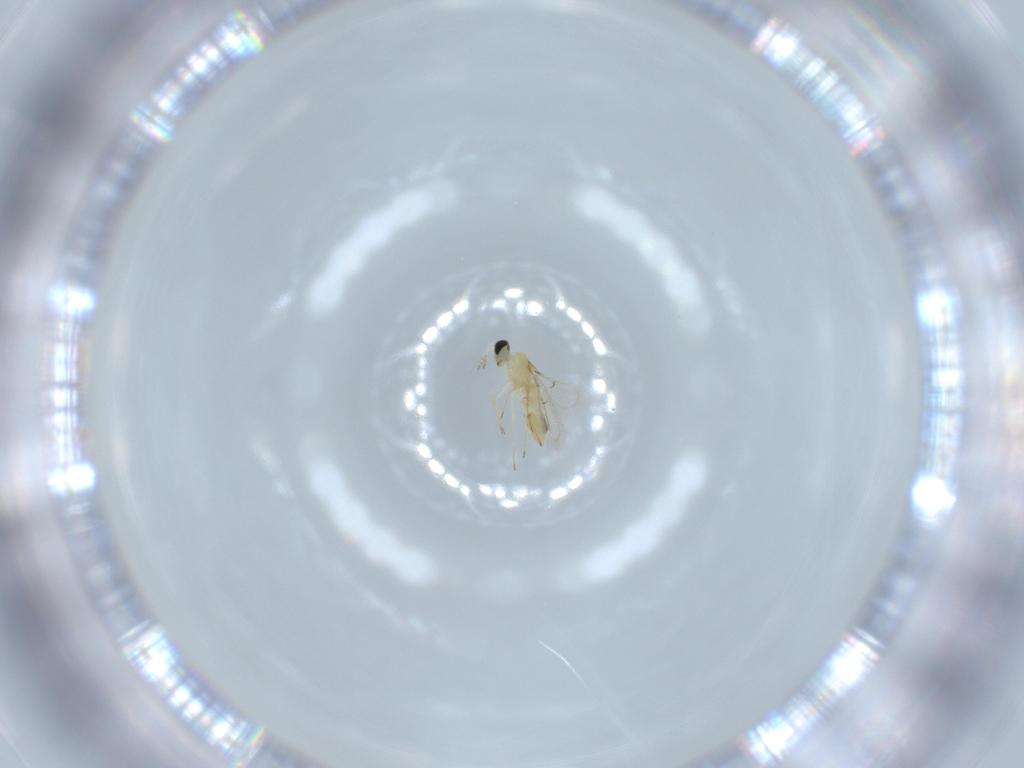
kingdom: Animalia
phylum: Arthropoda
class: Insecta
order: Hymenoptera
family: Trichogrammatidae
